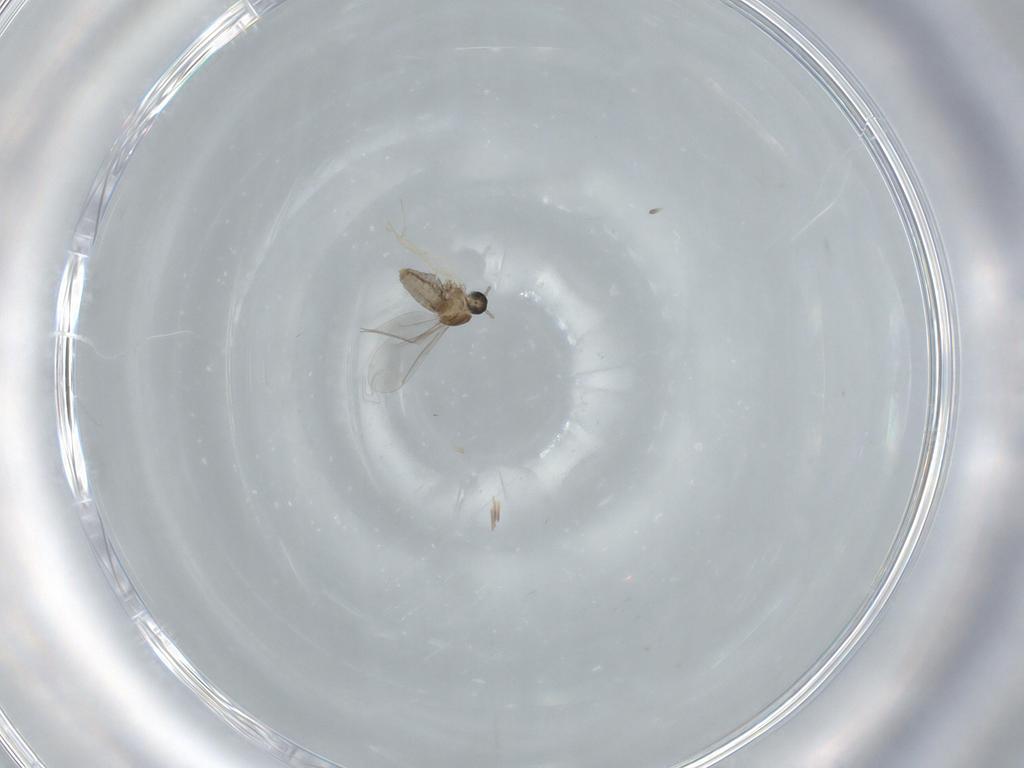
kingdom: Animalia
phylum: Arthropoda
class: Insecta
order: Diptera
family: Cecidomyiidae
